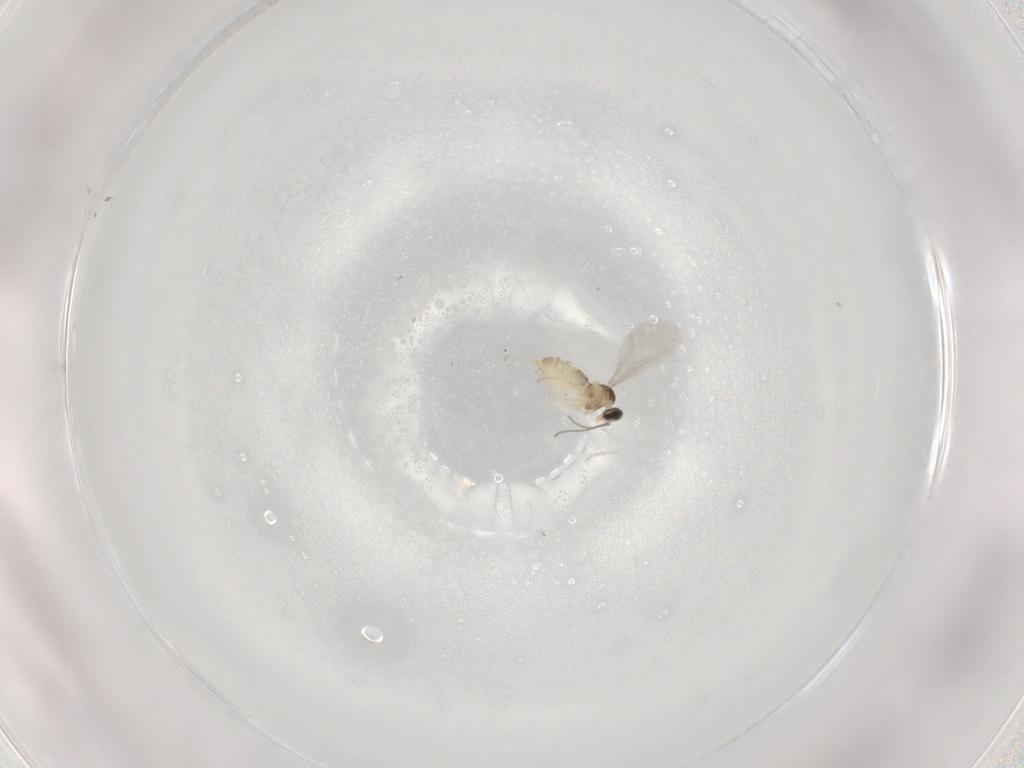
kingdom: Animalia
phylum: Arthropoda
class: Insecta
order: Diptera
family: Cecidomyiidae
